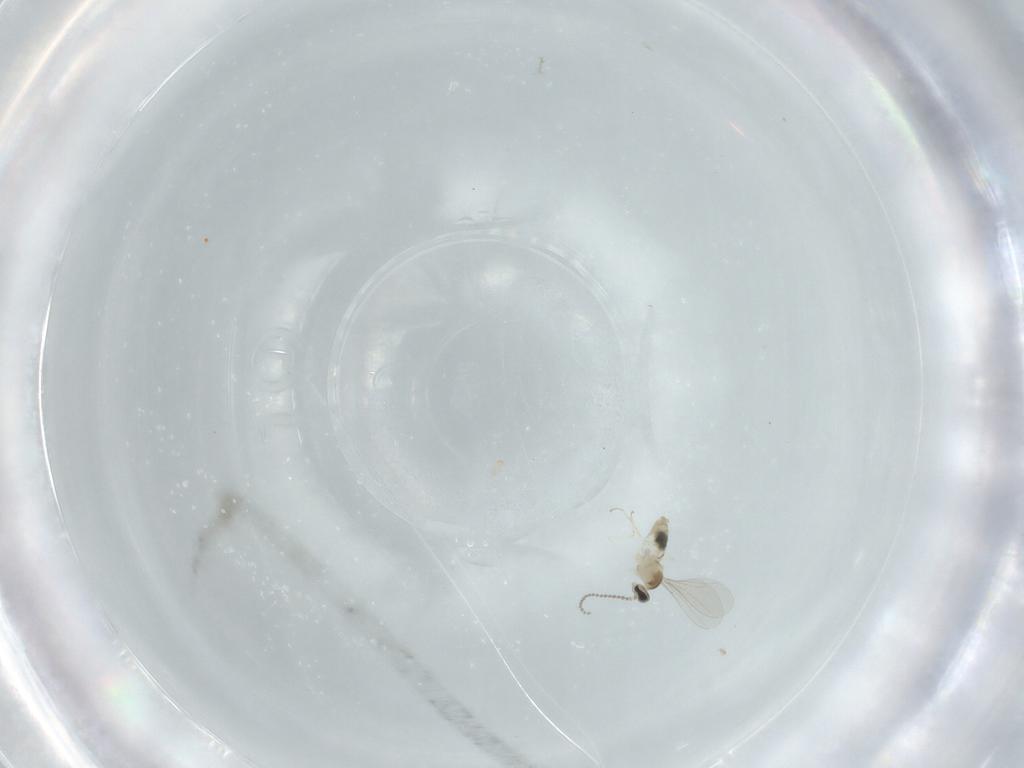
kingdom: Animalia
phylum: Arthropoda
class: Insecta
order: Diptera
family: Cecidomyiidae
